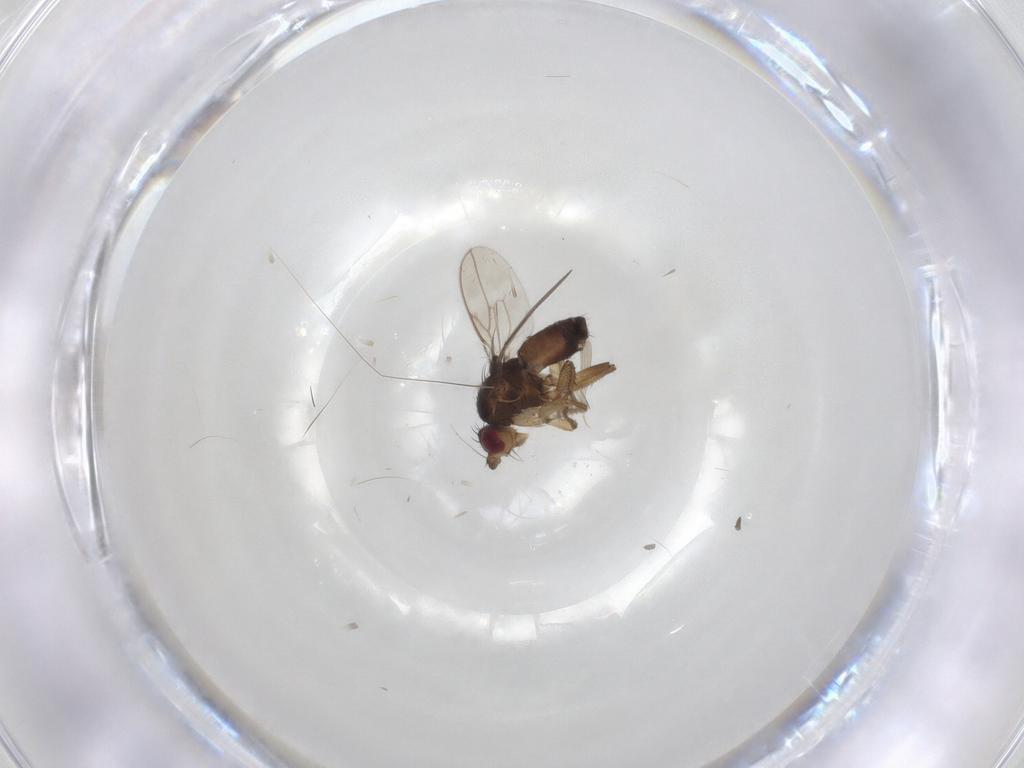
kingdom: Animalia
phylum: Arthropoda
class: Insecta
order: Diptera
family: Sphaeroceridae
